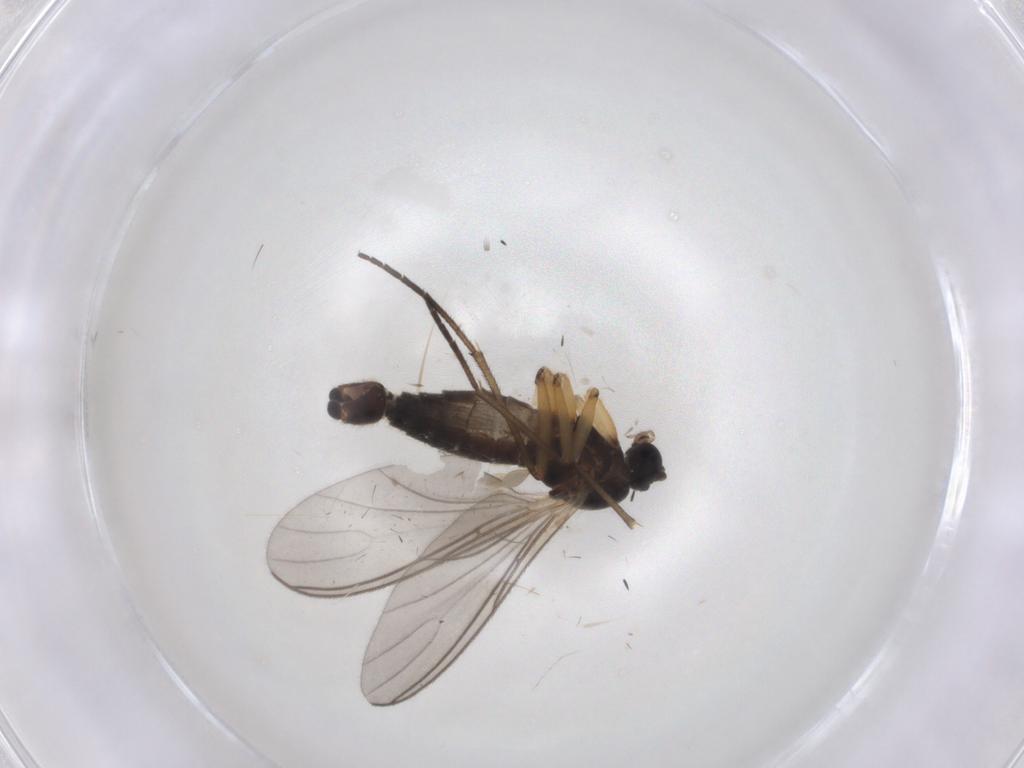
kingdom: Animalia
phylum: Arthropoda
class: Insecta
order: Diptera
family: Sciaridae
